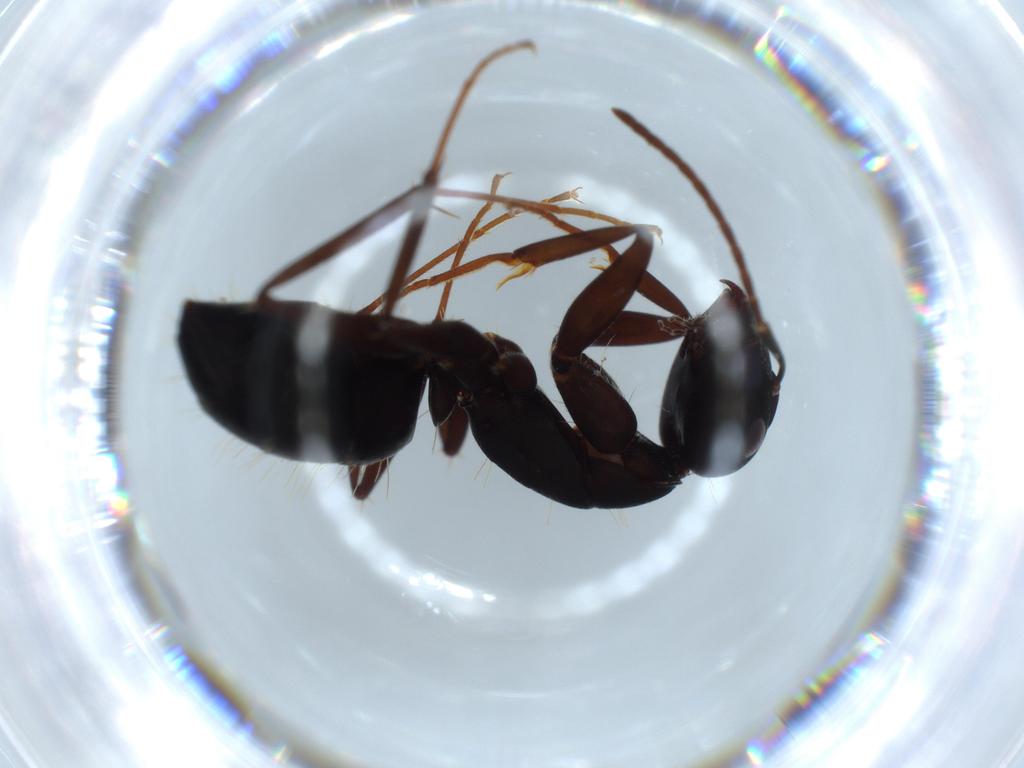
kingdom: Animalia
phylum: Arthropoda
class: Insecta
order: Hymenoptera
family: Formicidae
